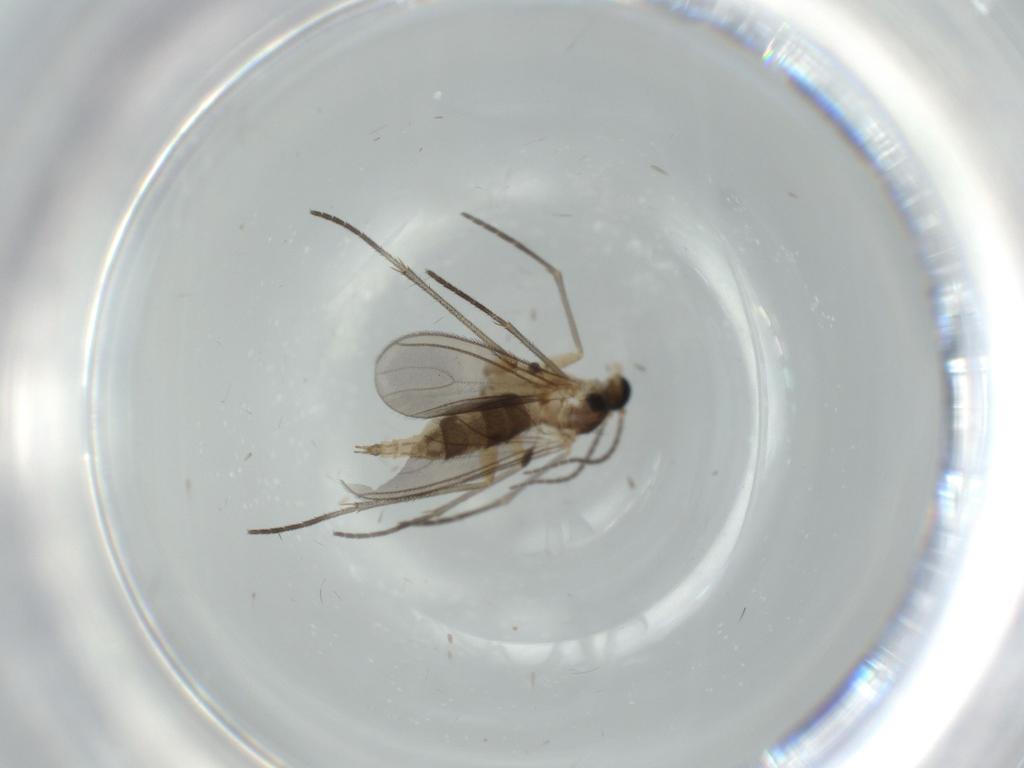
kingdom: Animalia
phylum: Arthropoda
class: Insecta
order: Diptera
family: Sciaridae
